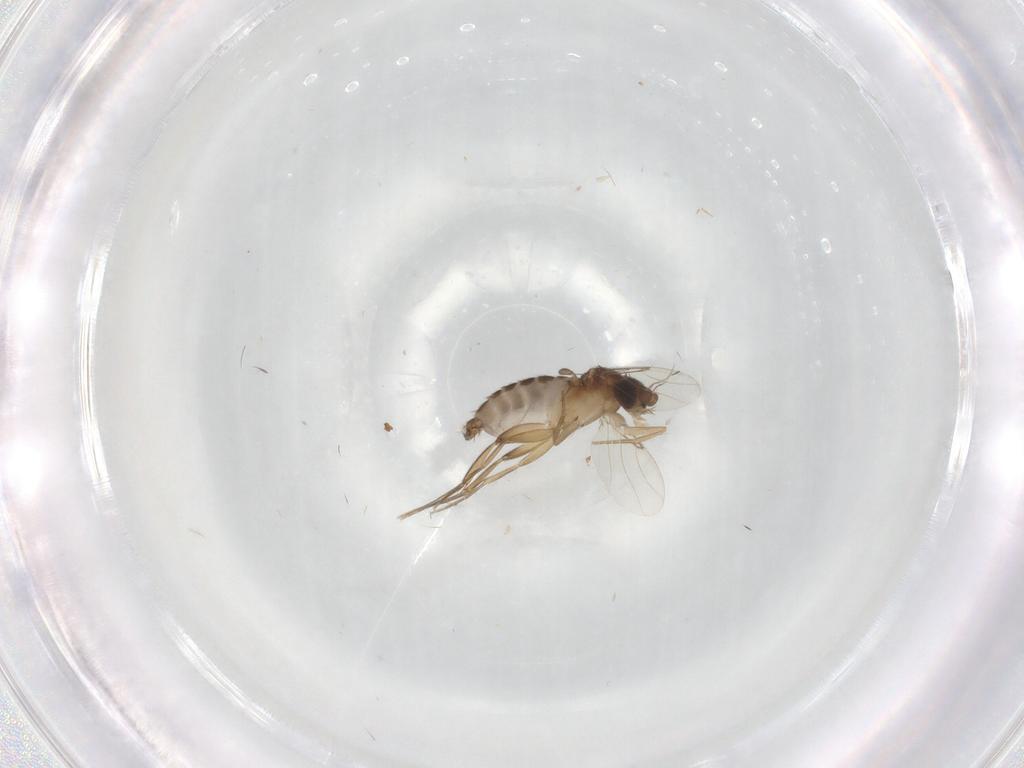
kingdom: Animalia
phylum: Arthropoda
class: Insecta
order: Diptera
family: Phoridae
